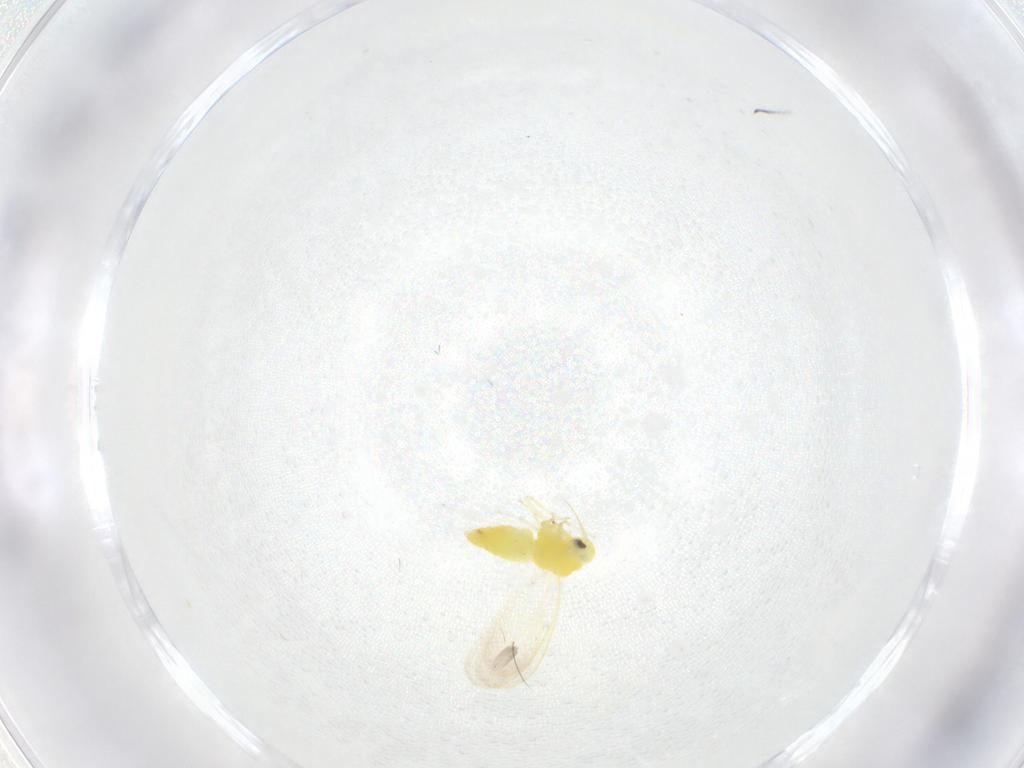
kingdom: Animalia
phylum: Arthropoda
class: Insecta
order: Hemiptera
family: Aleyrodidae
